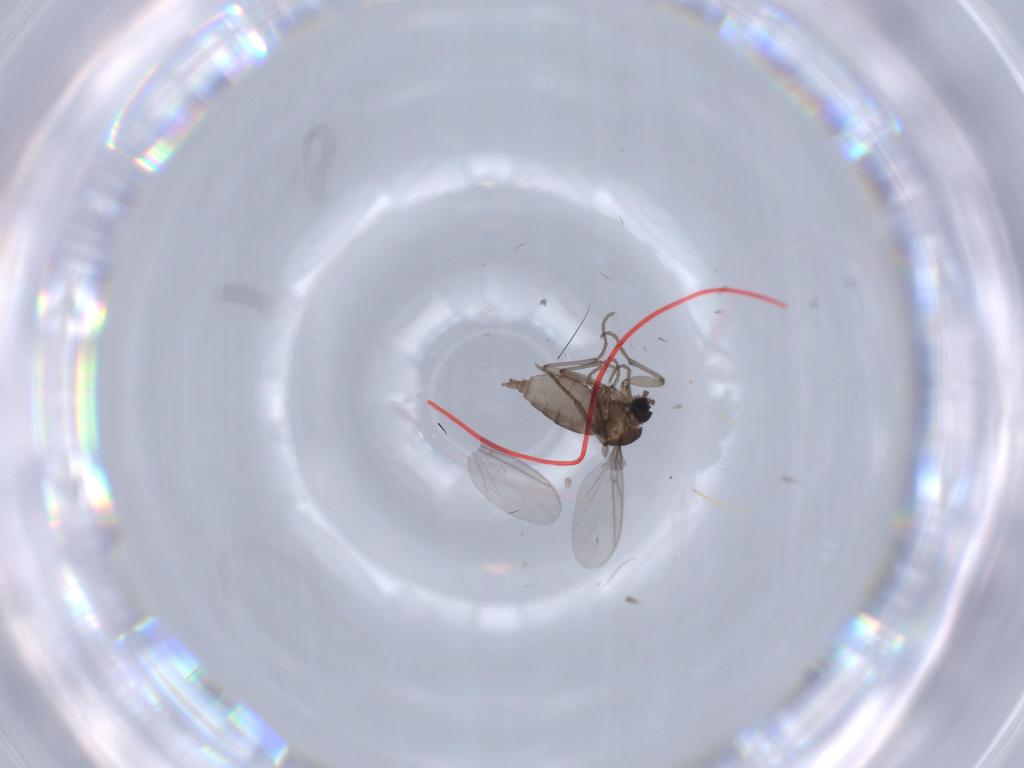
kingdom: Animalia
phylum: Arthropoda
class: Insecta
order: Diptera
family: Sciaridae
